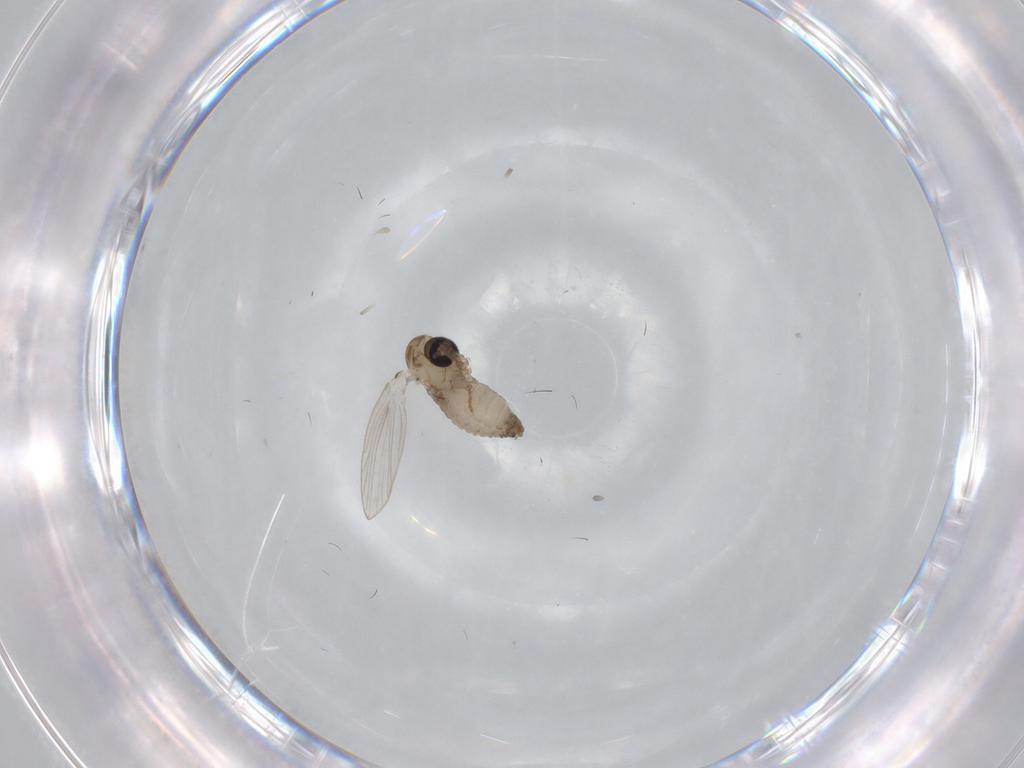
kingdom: Animalia
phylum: Arthropoda
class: Insecta
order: Diptera
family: Psychodidae
